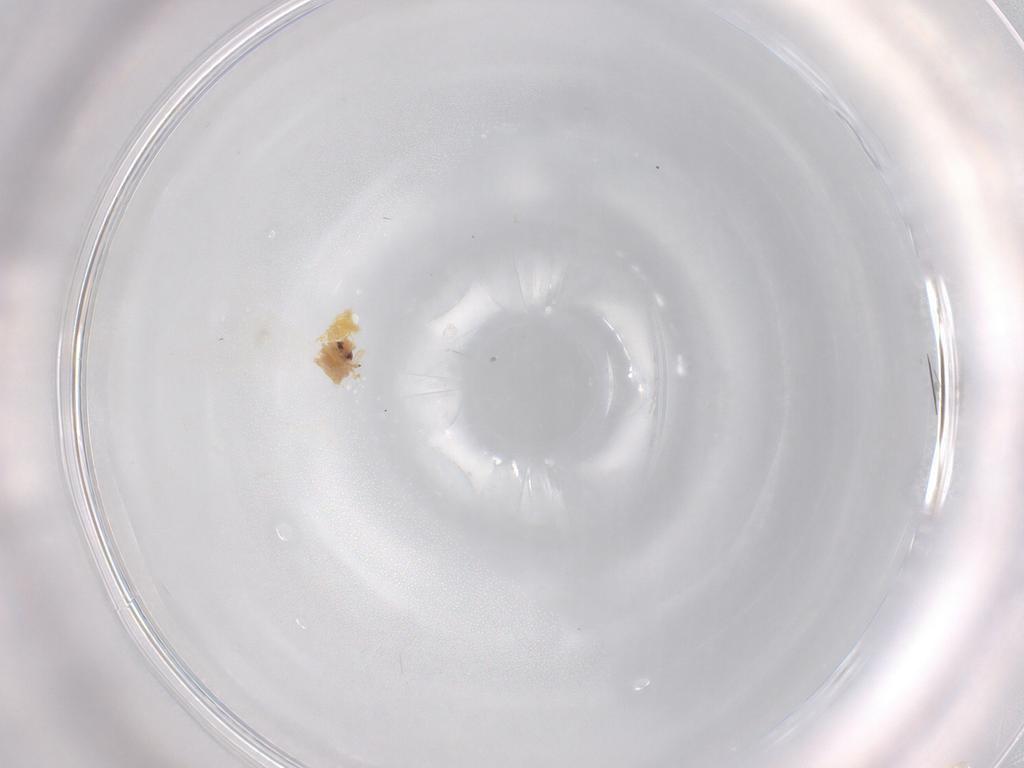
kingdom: Animalia
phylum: Arthropoda
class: Insecta
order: Hemiptera
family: Aleyrodidae
